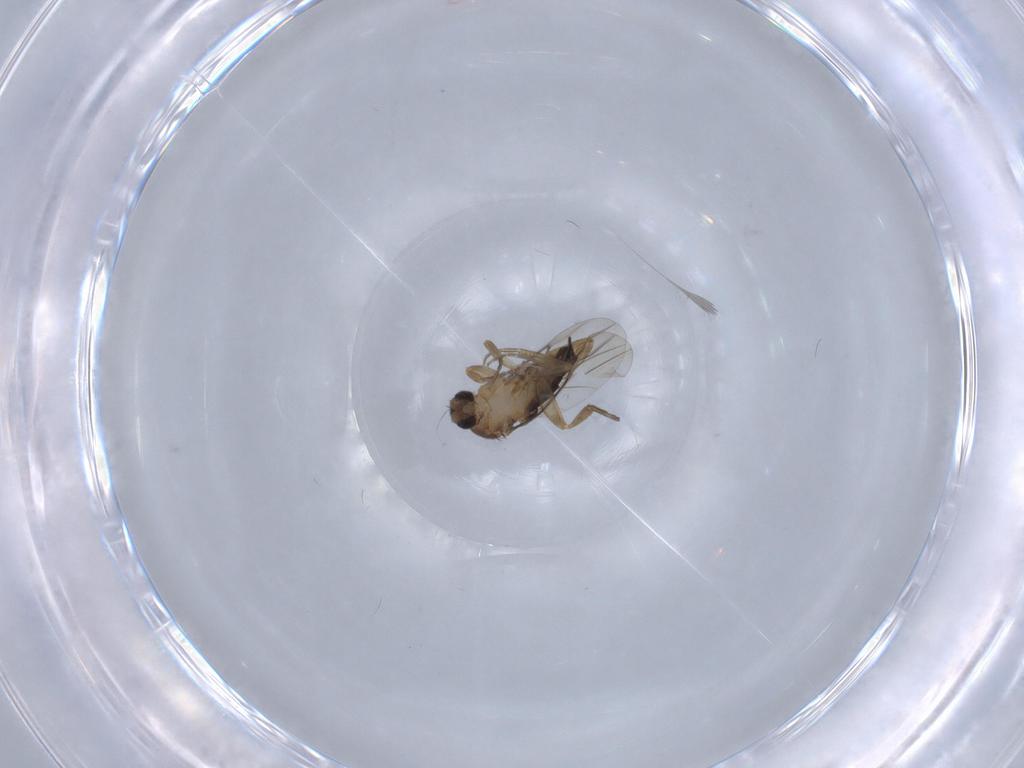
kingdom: Animalia
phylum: Arthropoda
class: Insecta
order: Diptera
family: Phoridae
